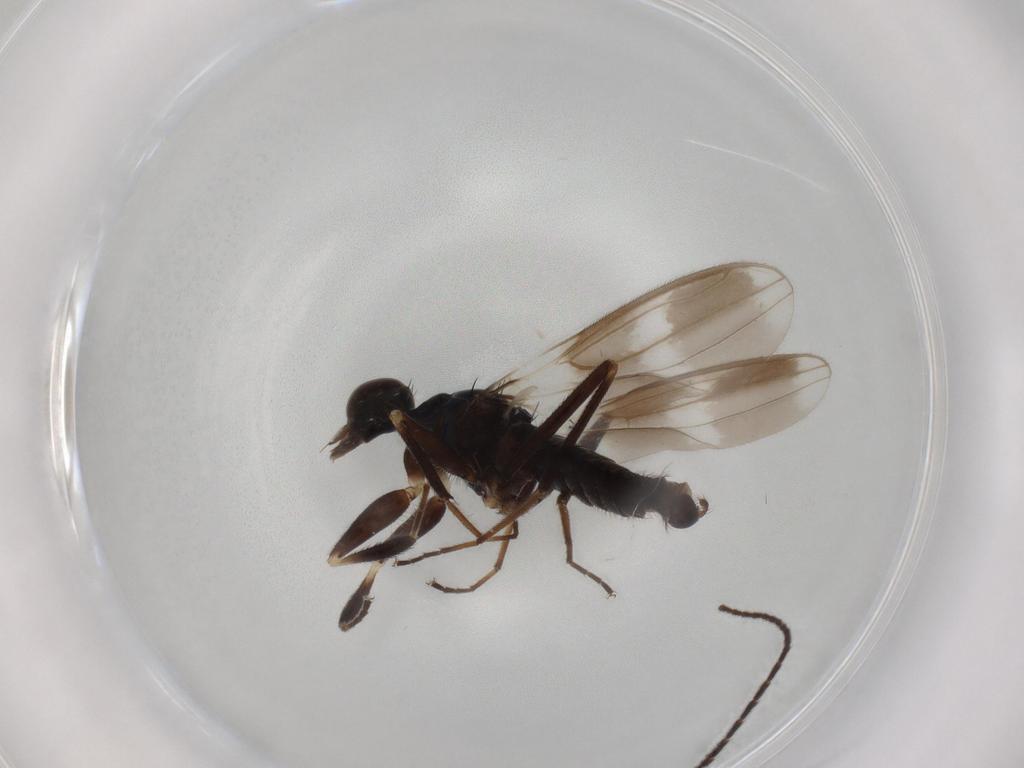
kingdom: Animalia
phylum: Arthropoda
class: Insecta
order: Diptera
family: Hybotidae
